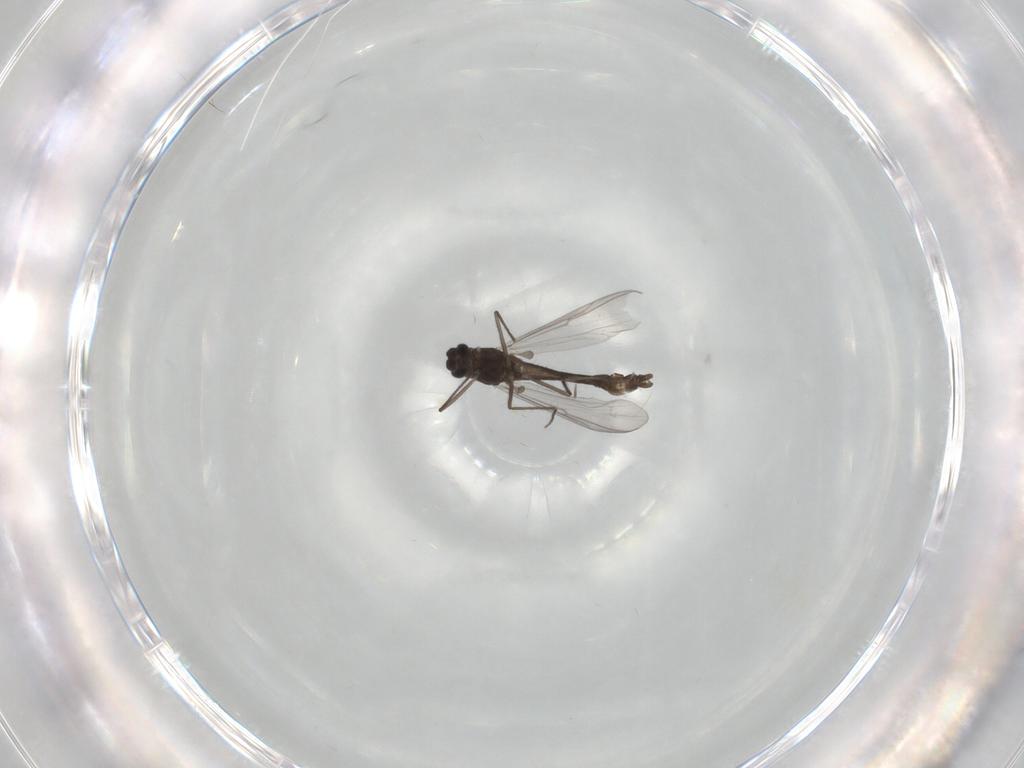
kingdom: Animalia
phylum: Arthropoda
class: Insecta
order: Diptera
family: Chironomidae
